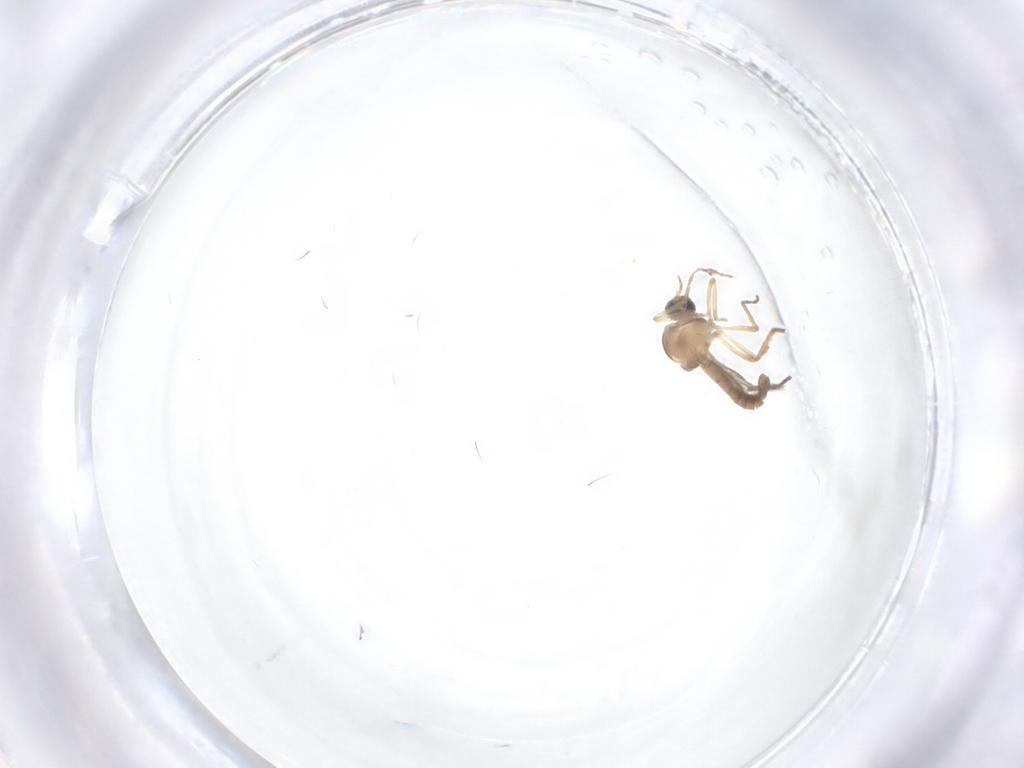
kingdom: Animalia
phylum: Arthropoda
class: Insecta
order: Diptera
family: Ceratopogonidae
